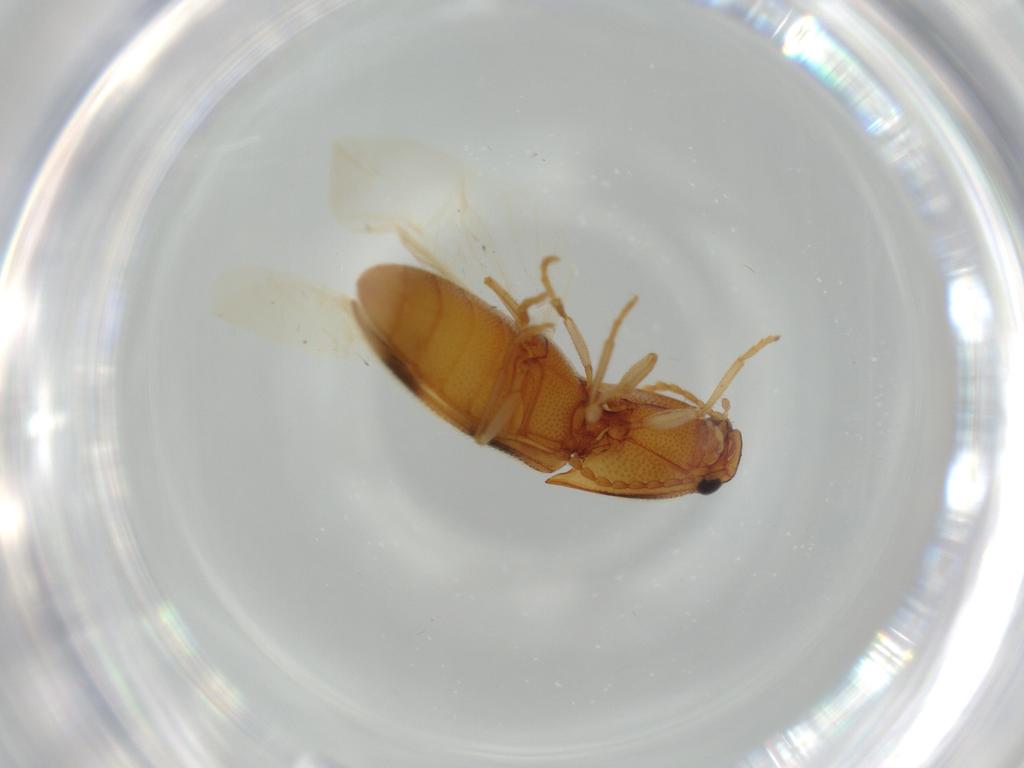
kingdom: Animalia
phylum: Arthropoda
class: Insecta
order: Coleoptera
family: Elateridae
